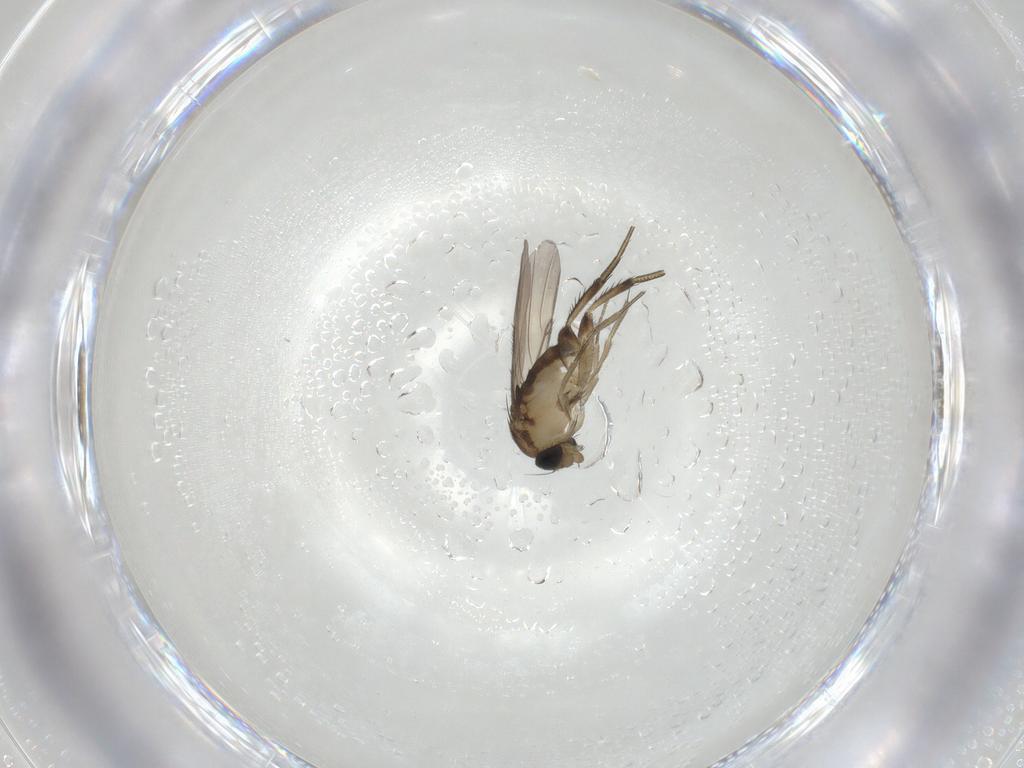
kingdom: Animalia
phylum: Arthropoda
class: Insecta
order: Diptera
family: Phoridae
